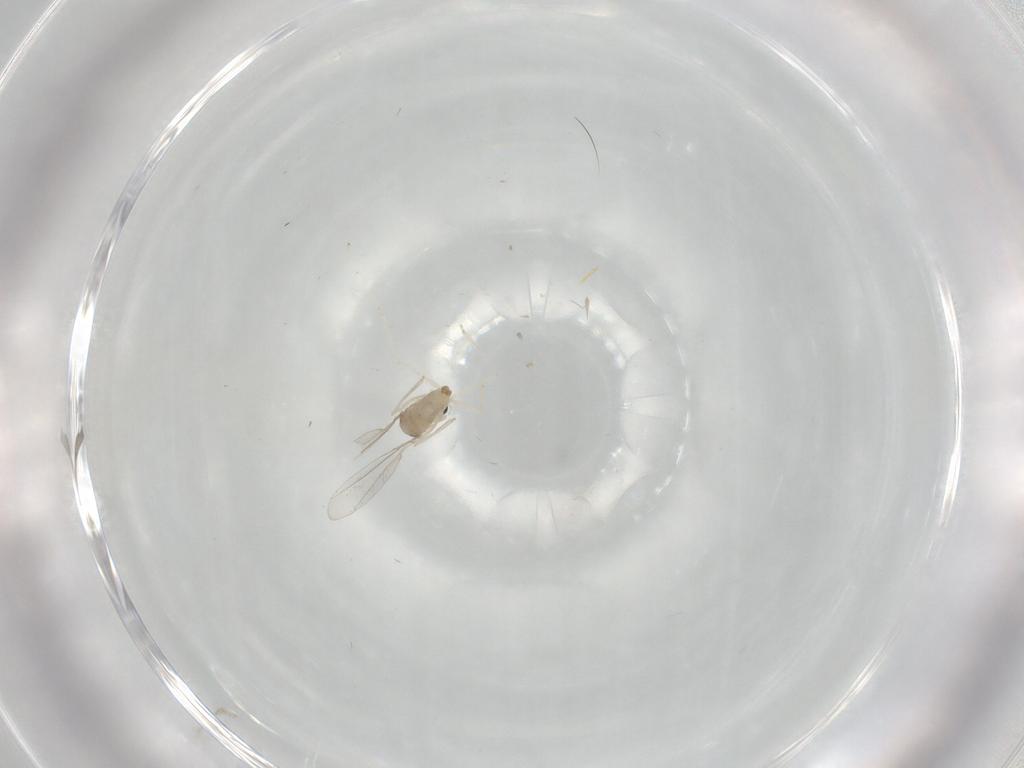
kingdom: Animalia
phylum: Arthropoda
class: Insecta
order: Diptera
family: Cecidomyiidae
